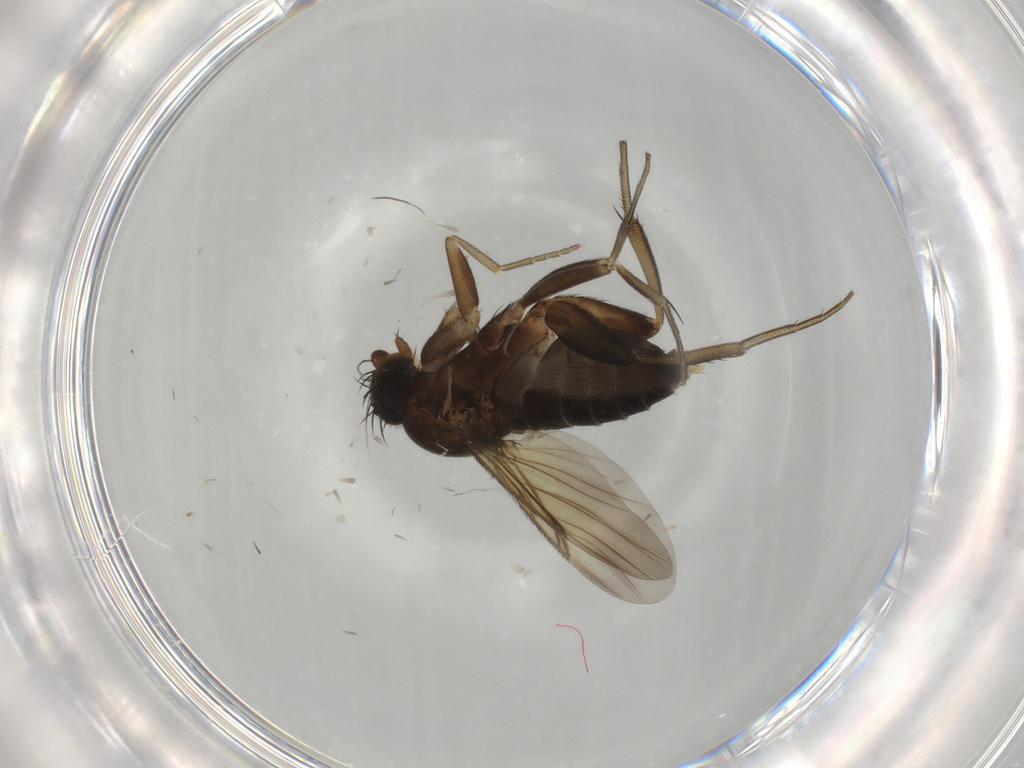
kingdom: Animalia
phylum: Arthropoda
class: Insecta
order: Diptera
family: Phoridae
